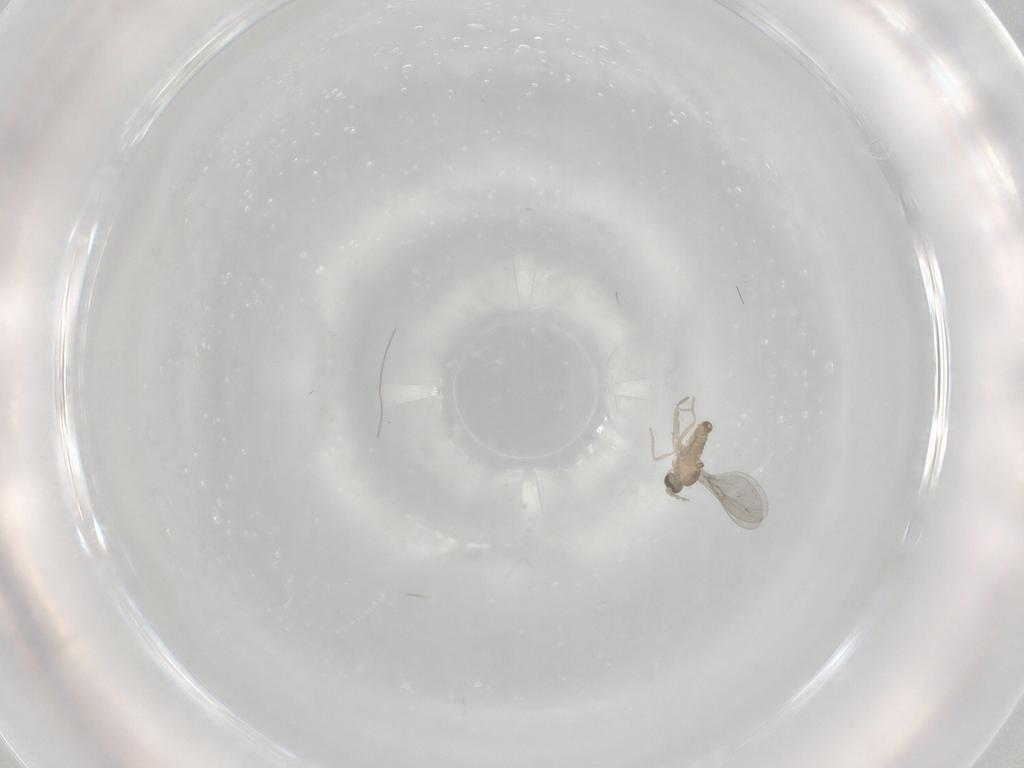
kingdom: Animalia
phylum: Arthropoda
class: Insecta
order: Diptera
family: Cecidomyiidae
